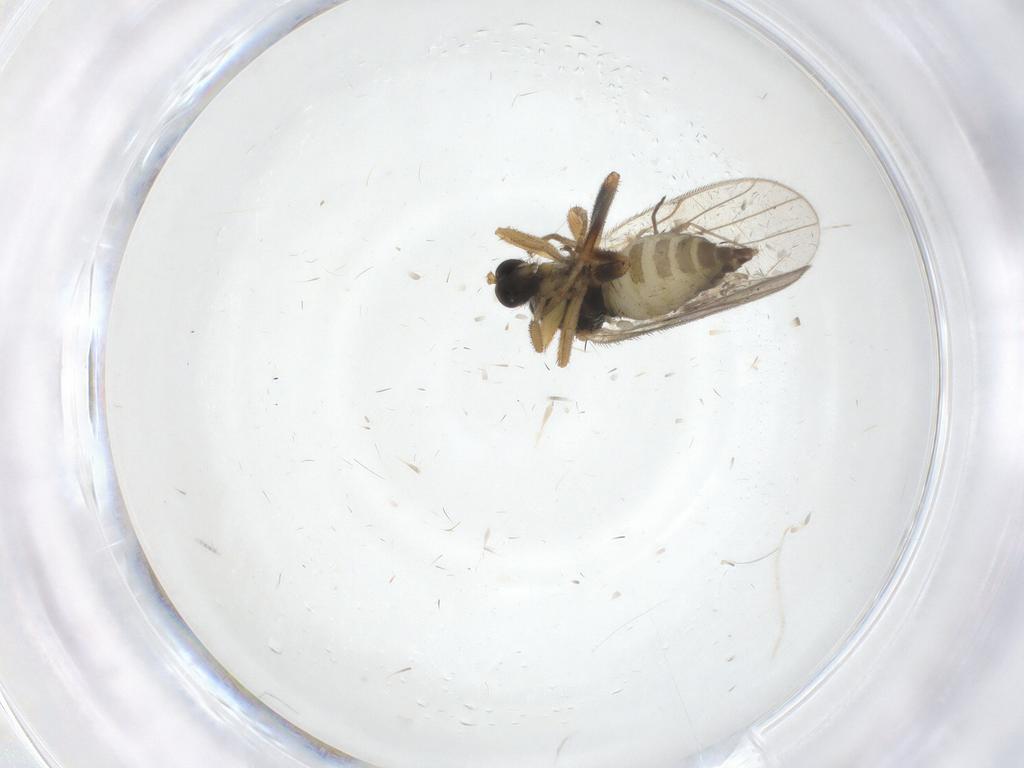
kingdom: Animalia
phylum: Arthropoda
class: Insecta
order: Diptera
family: Hybotidae
